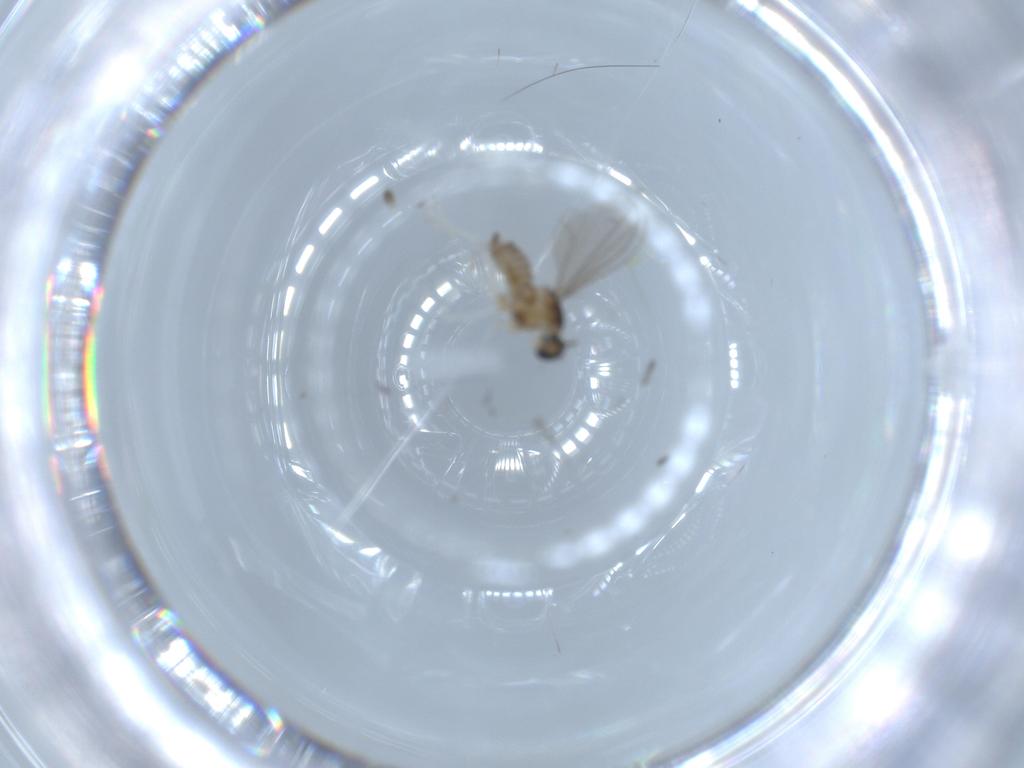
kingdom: Animalia
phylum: Arthropoda
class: Insecta
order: Diptera
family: Cecidomyiidae
